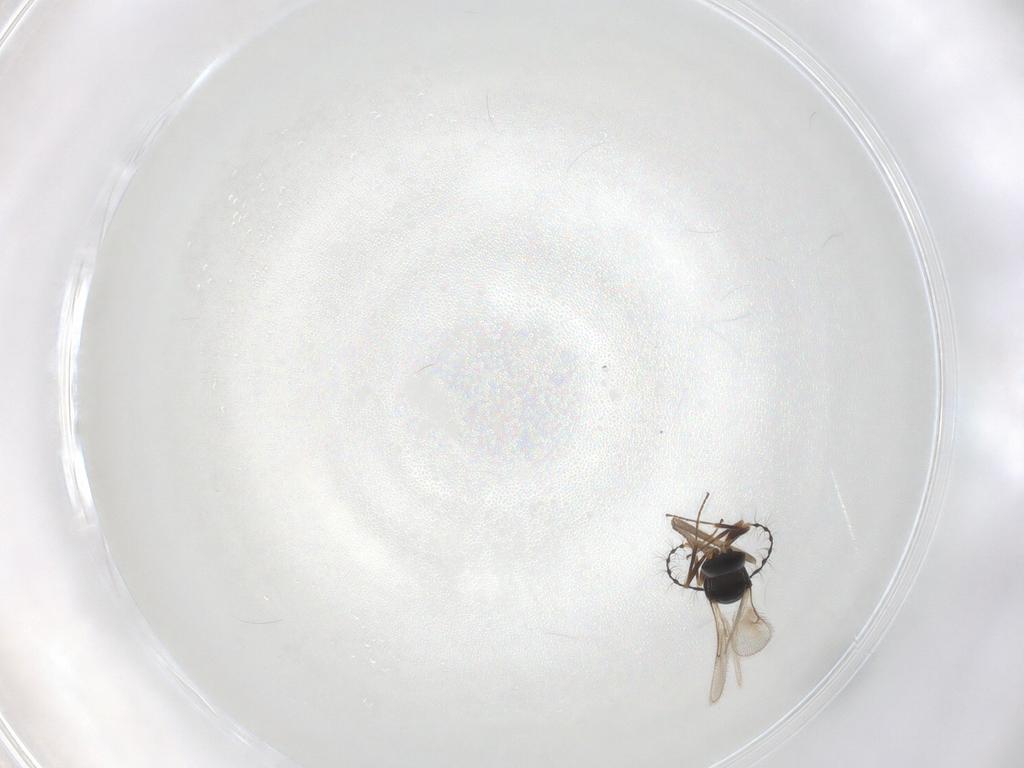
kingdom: Animalia
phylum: Arthropoda
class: Insecta
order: Hymenoptera
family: Scelionidae
